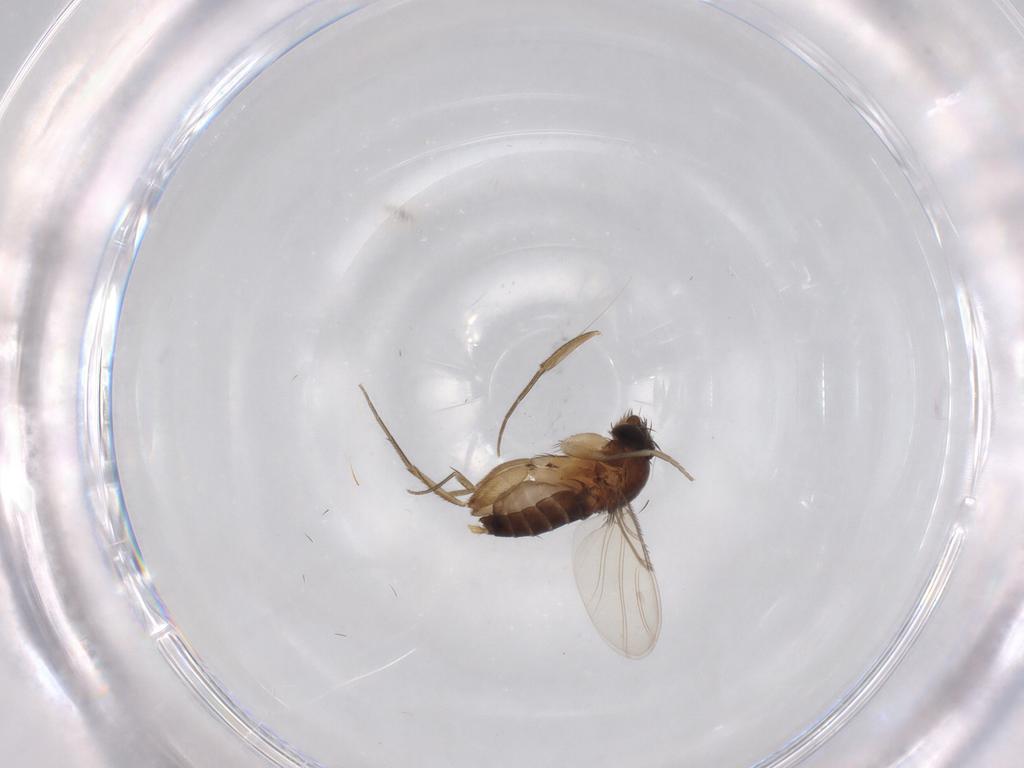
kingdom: Animalia
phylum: Arthropoda
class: Insecta
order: Diptera
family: Phoridae
